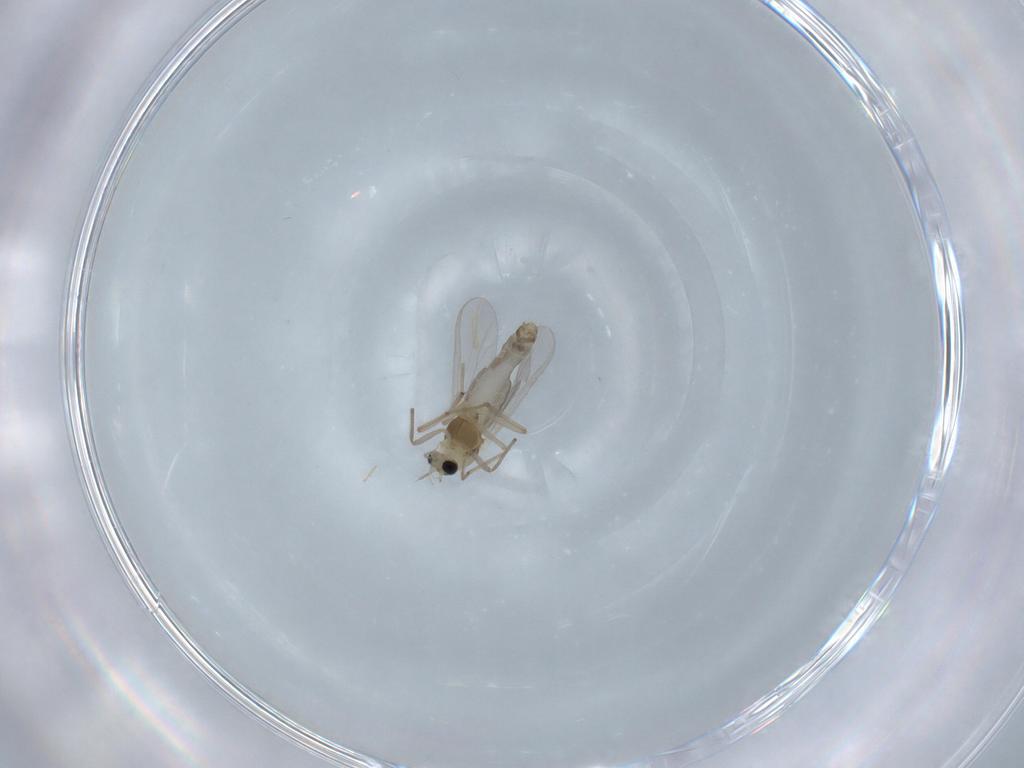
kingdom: Animalia
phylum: Arthropoda
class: Insecta
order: Diptera
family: Chironomidae
